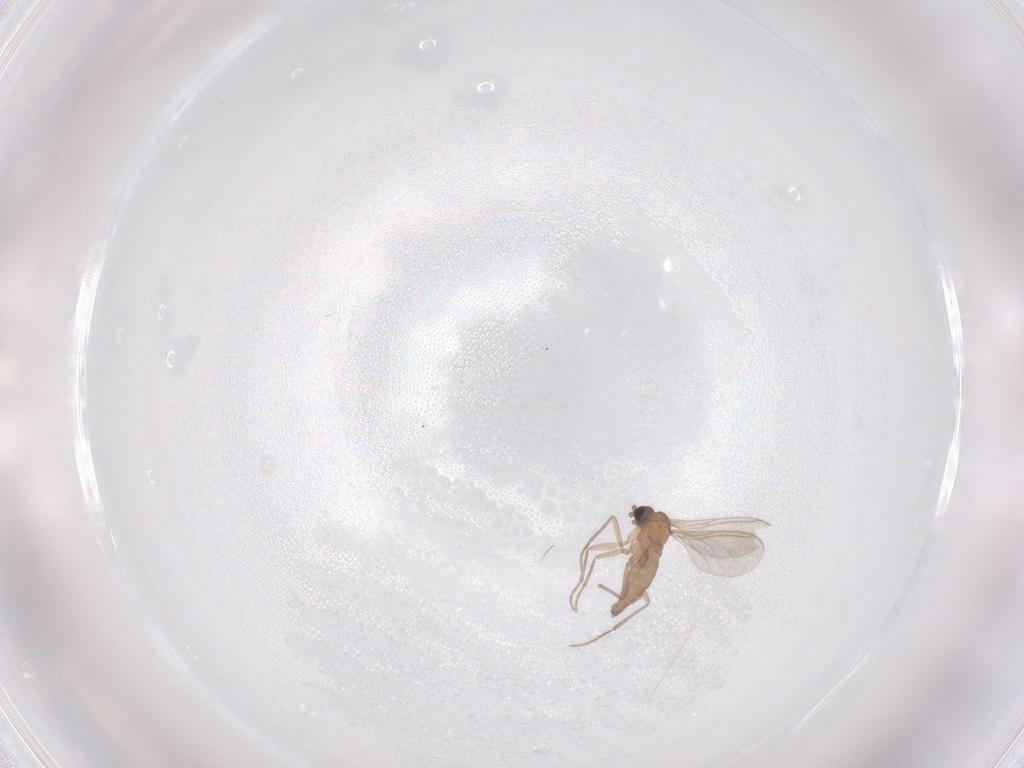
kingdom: Animalia
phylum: Arthropoda
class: Insecta
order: Diptera
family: Sciaridae
